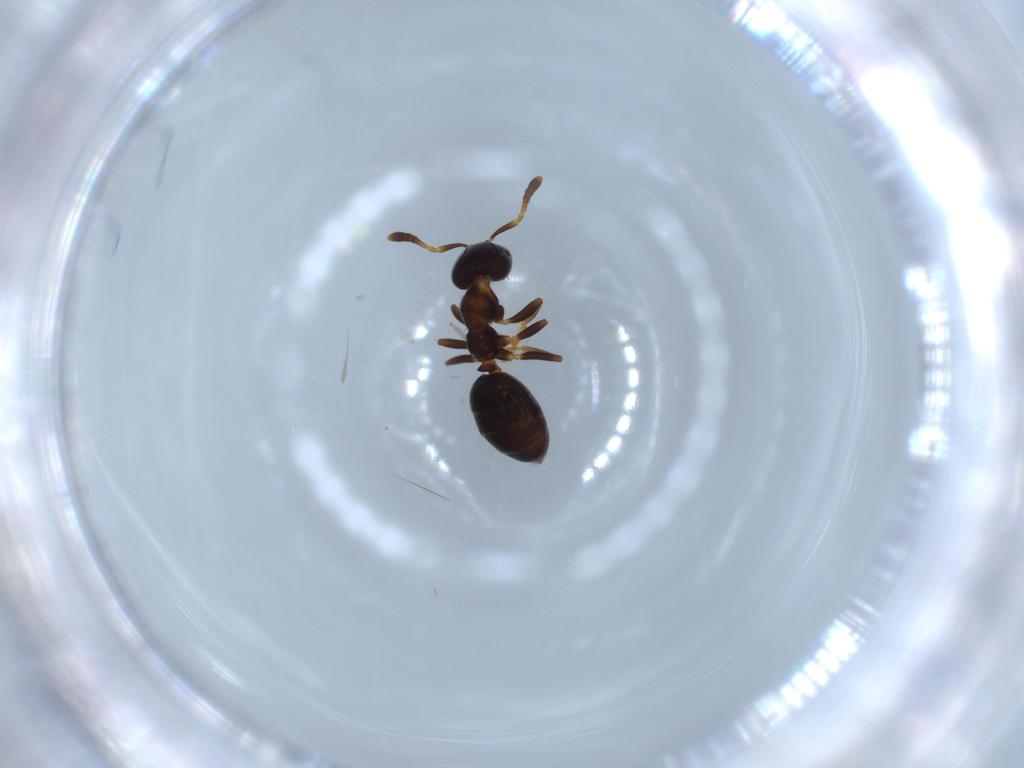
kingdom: Animalia
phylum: Arthropoda
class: Insecta
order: Hymenoptera
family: Formicidae
